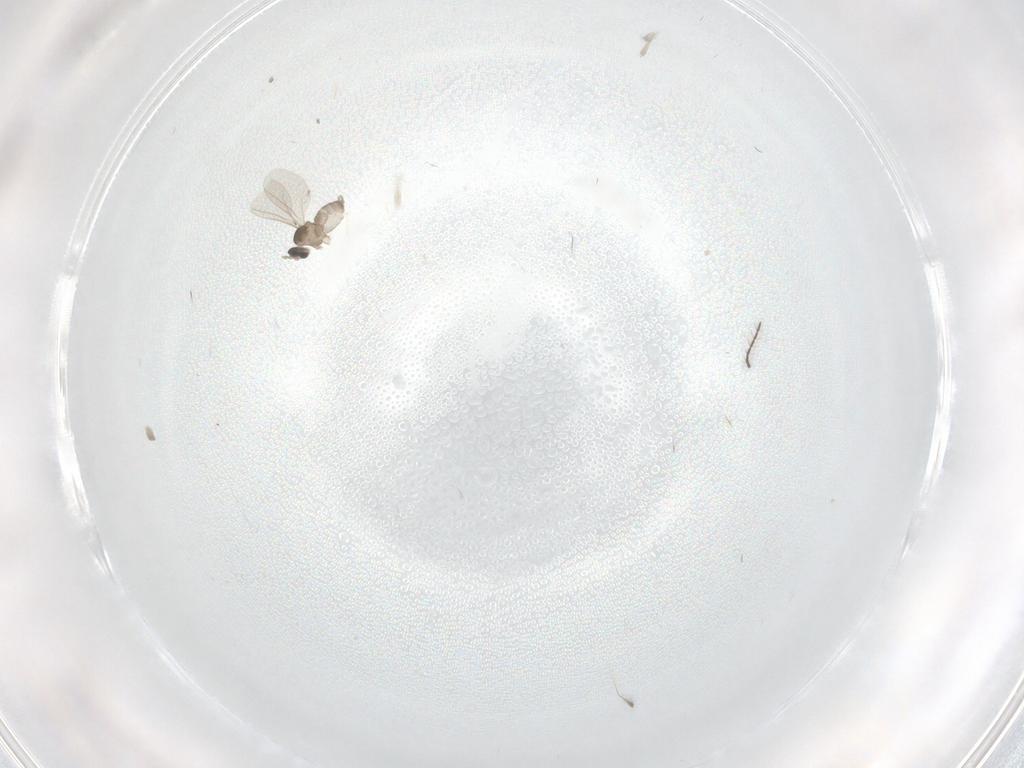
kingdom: Animalia
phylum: Arthropoda
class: Insecta
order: Diptera
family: Cecidomyiidae
